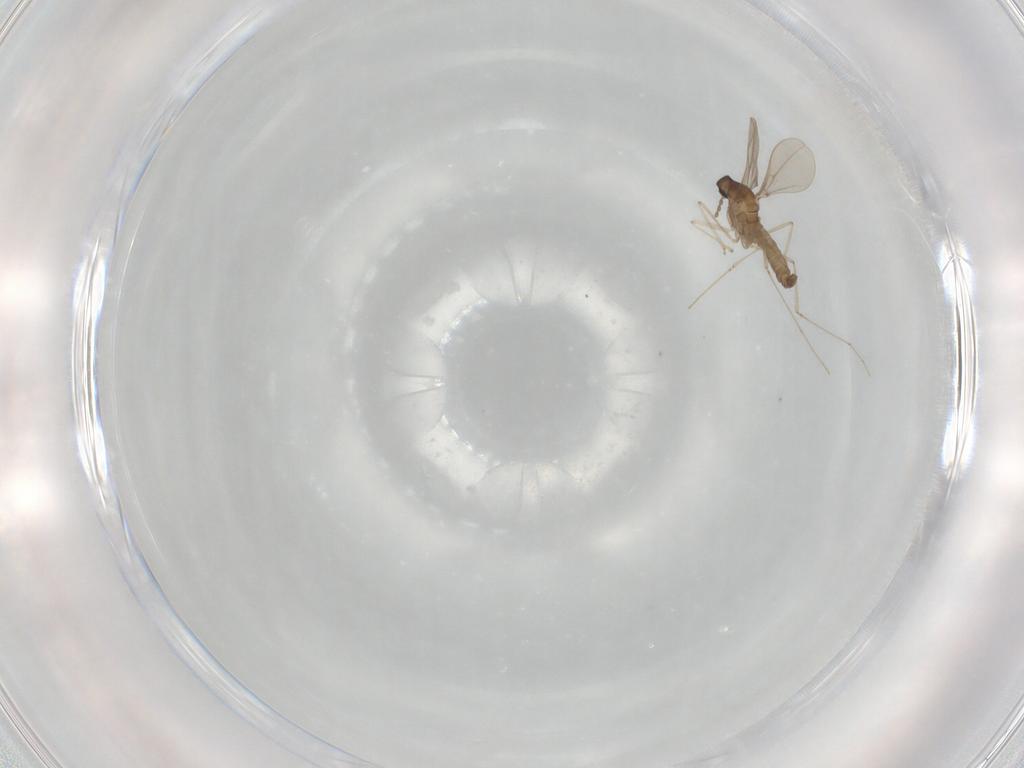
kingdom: Animalia
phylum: Arthropoda
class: Insecta
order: Diptera
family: Cecidomyiidae
